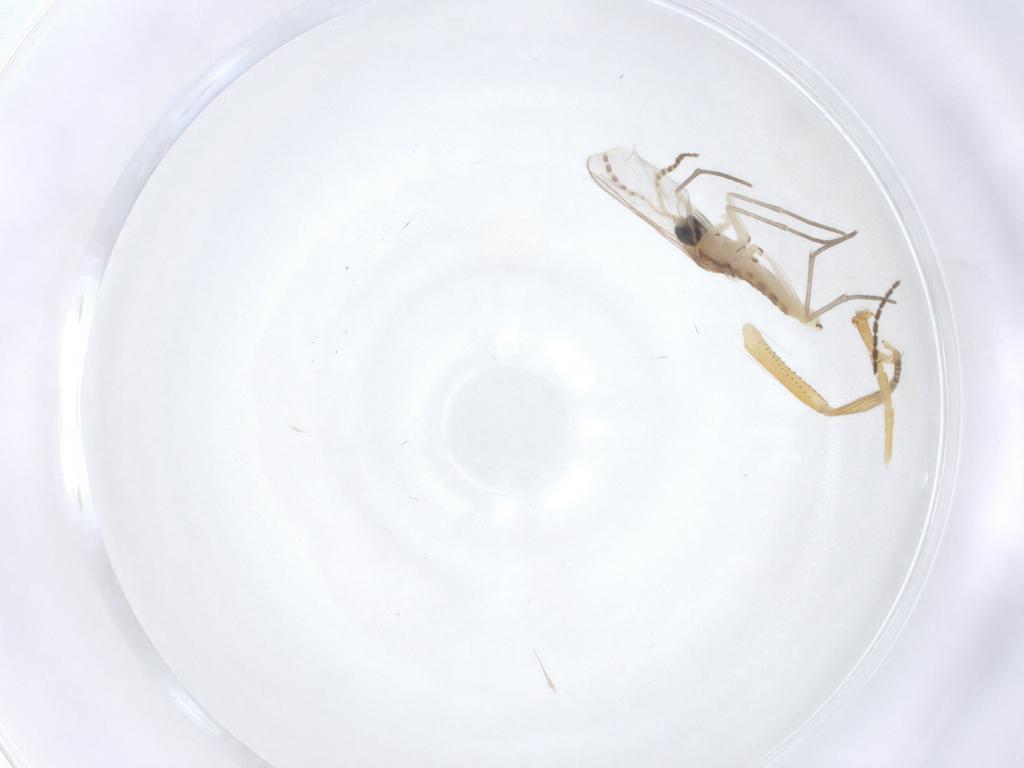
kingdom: Animalia
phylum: Arthropoda
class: Insecta
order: Diptera
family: Sciaridae
